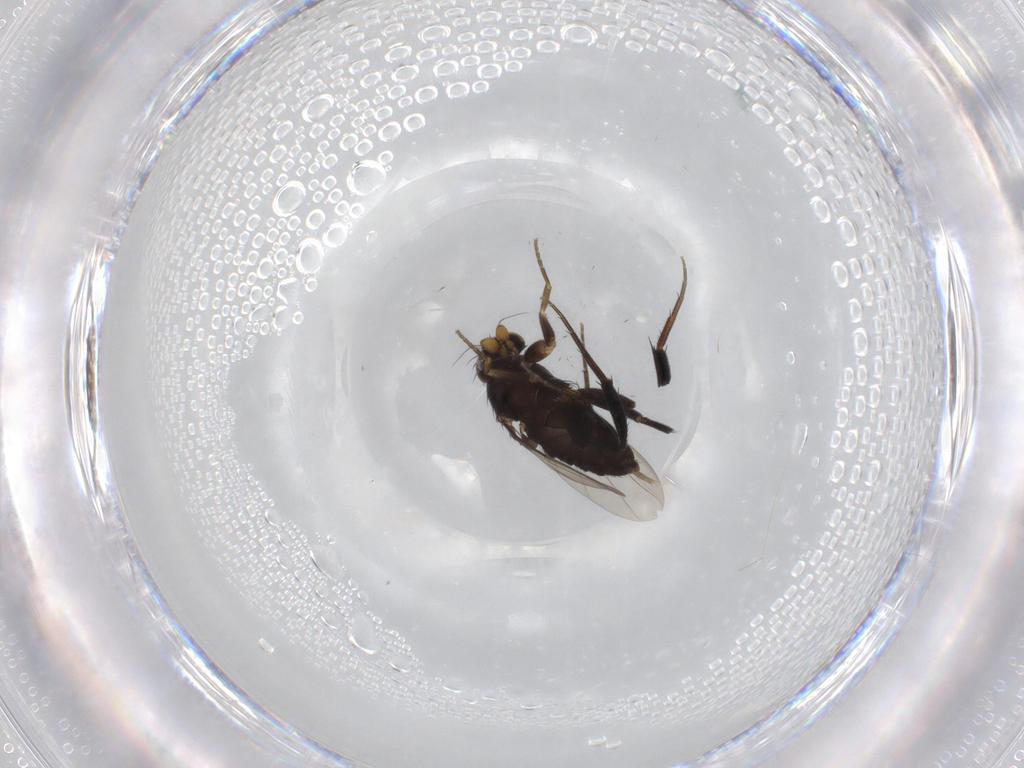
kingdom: Animalia
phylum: Arthropoda
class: Insecta
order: Diptera
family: Phoridae
